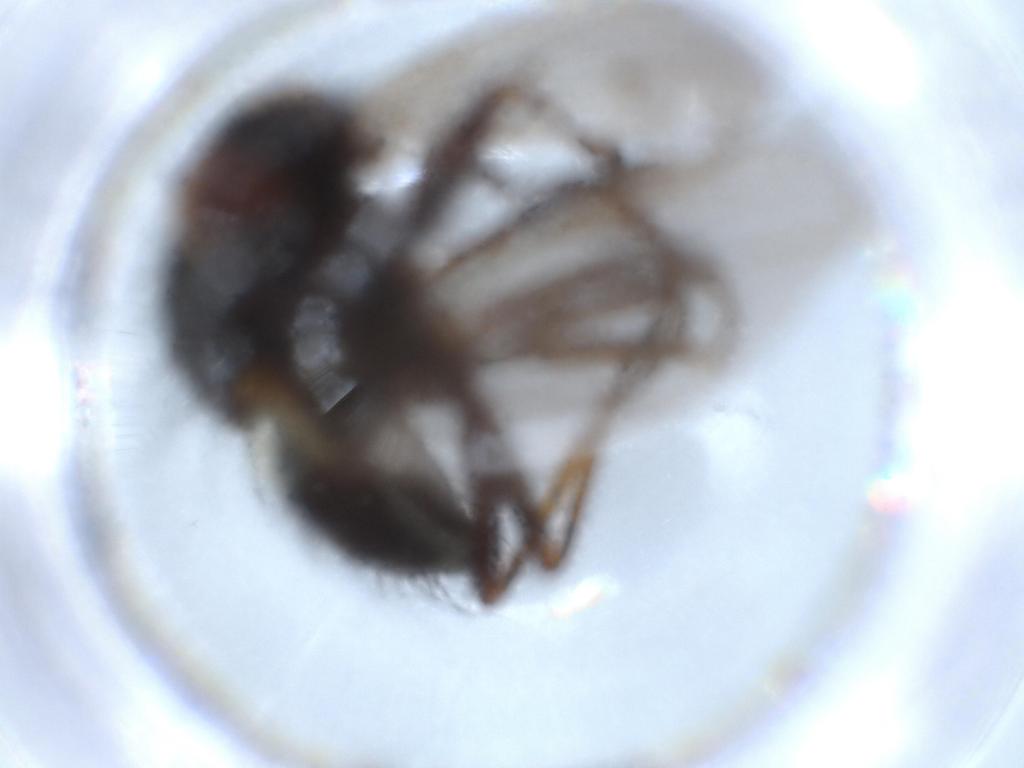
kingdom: Animalia
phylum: Arthropoda
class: Insecta
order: Diptera
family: Muscidae
